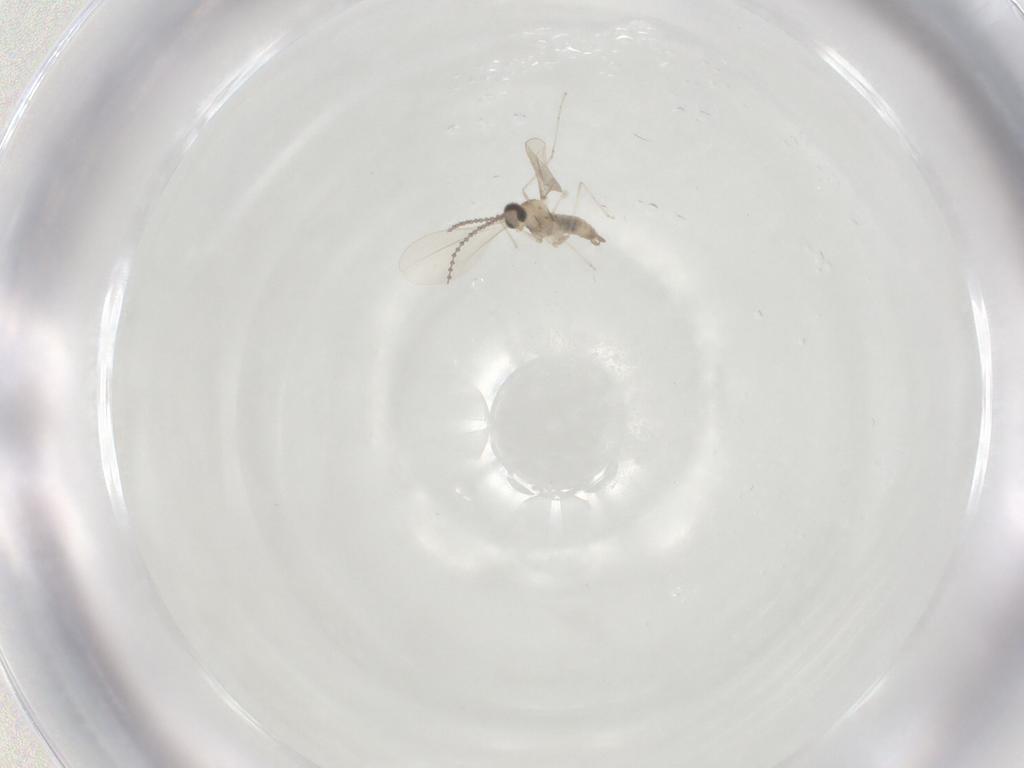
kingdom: Animalia
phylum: Arthropoda
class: Insecta
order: Diptera
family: Cecidomyiidae
